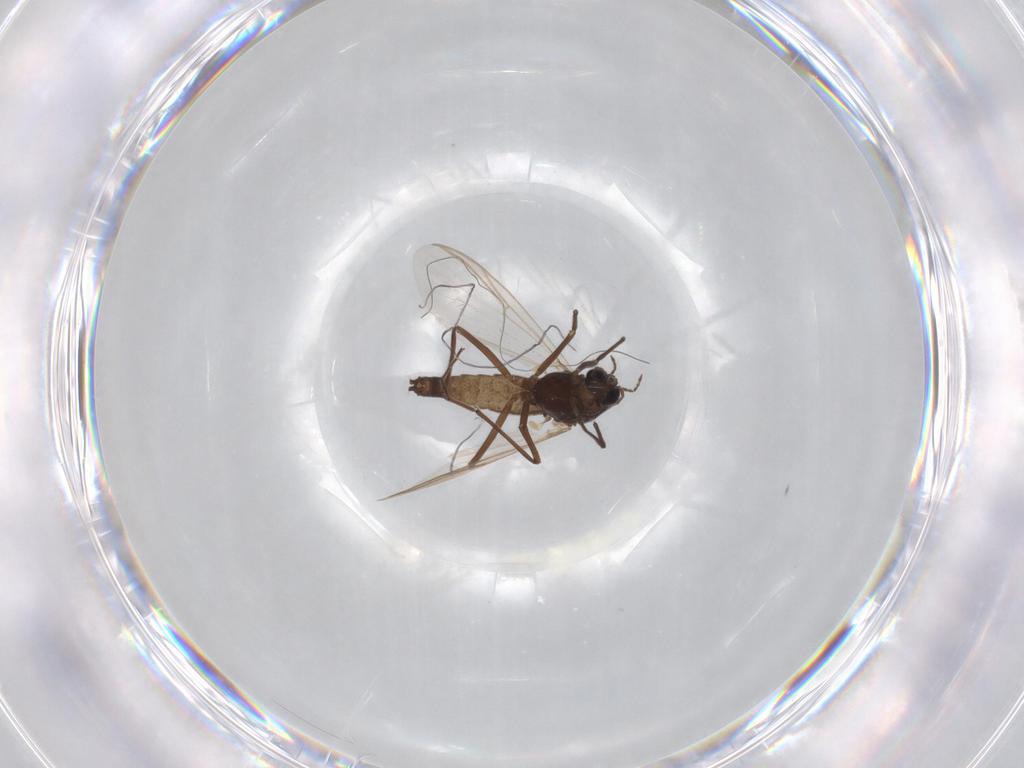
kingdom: Animalia
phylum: Arthropoda
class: Insecta
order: Diptera
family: Chironomidae
